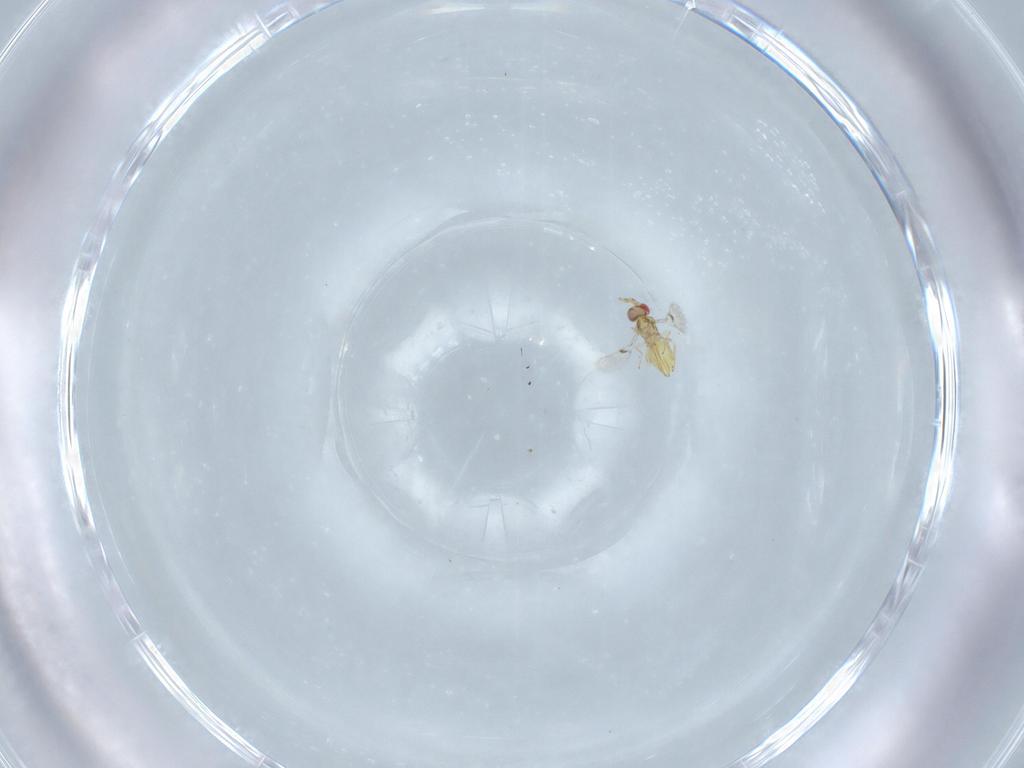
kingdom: Animalia
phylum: Arthropoda
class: Insecta
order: Hymenoptera
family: Trichogrammatidae
